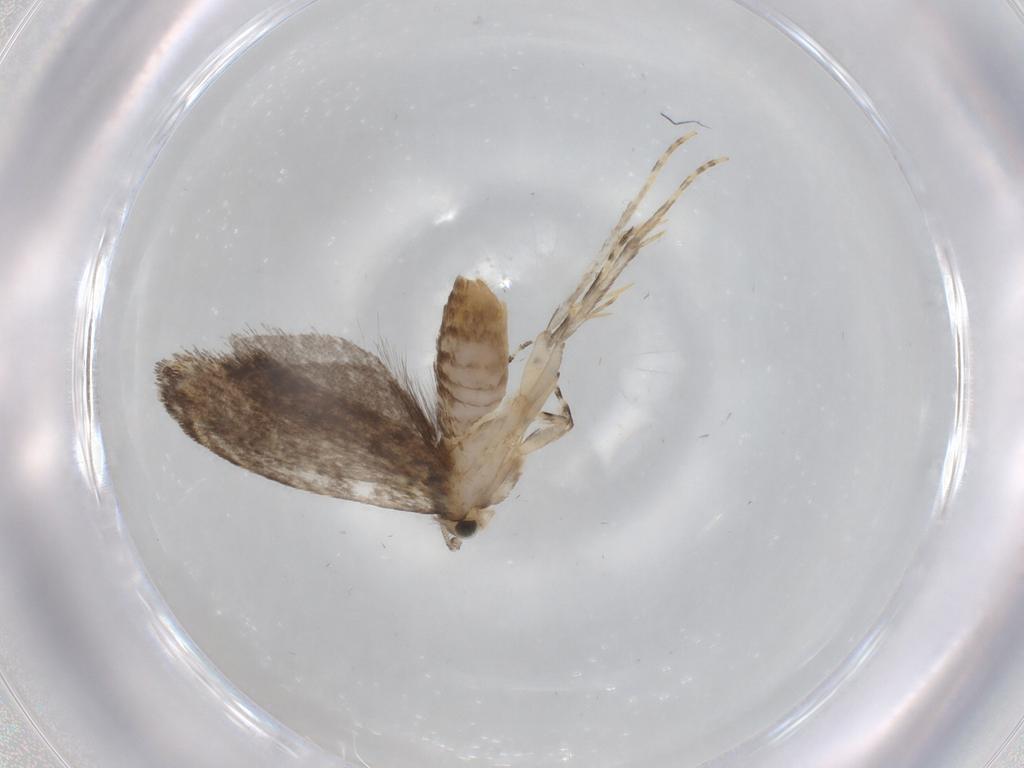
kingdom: Animalia
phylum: Arthropoda
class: Insecta
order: Lepidoptera
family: Tineidae
